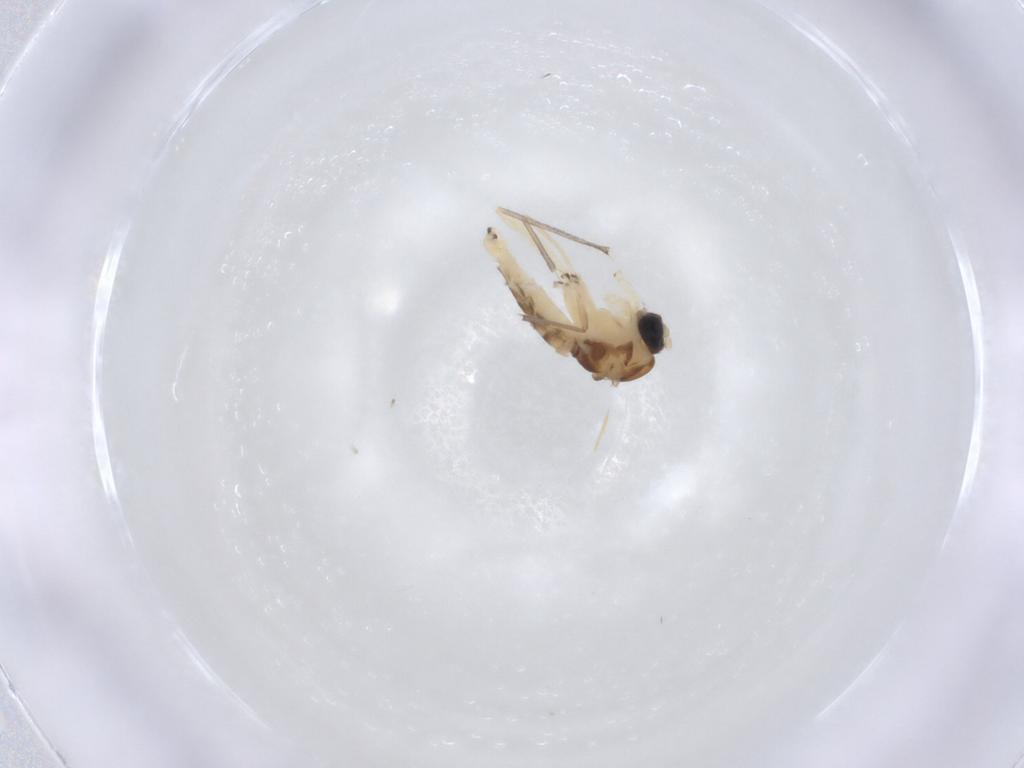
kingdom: Animalia
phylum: Arthropoda
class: Insecta
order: Diptera
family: Sciaridae
